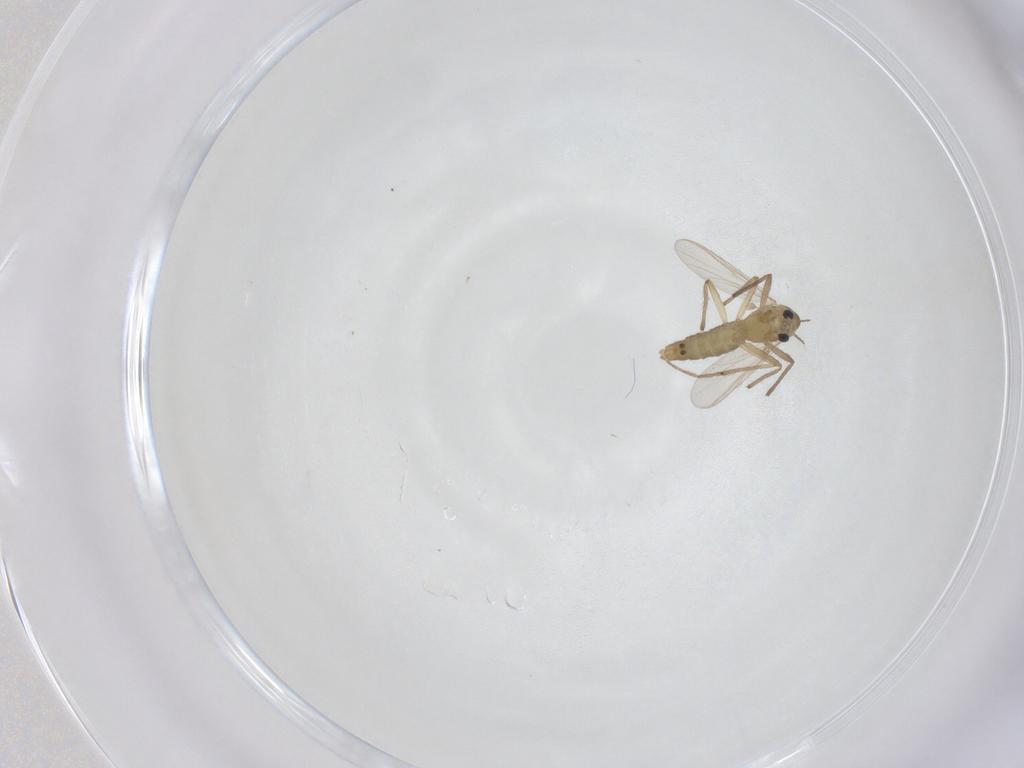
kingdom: Animalia
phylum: Arthropoda
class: Insecta
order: Diptera
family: Chironomidae
